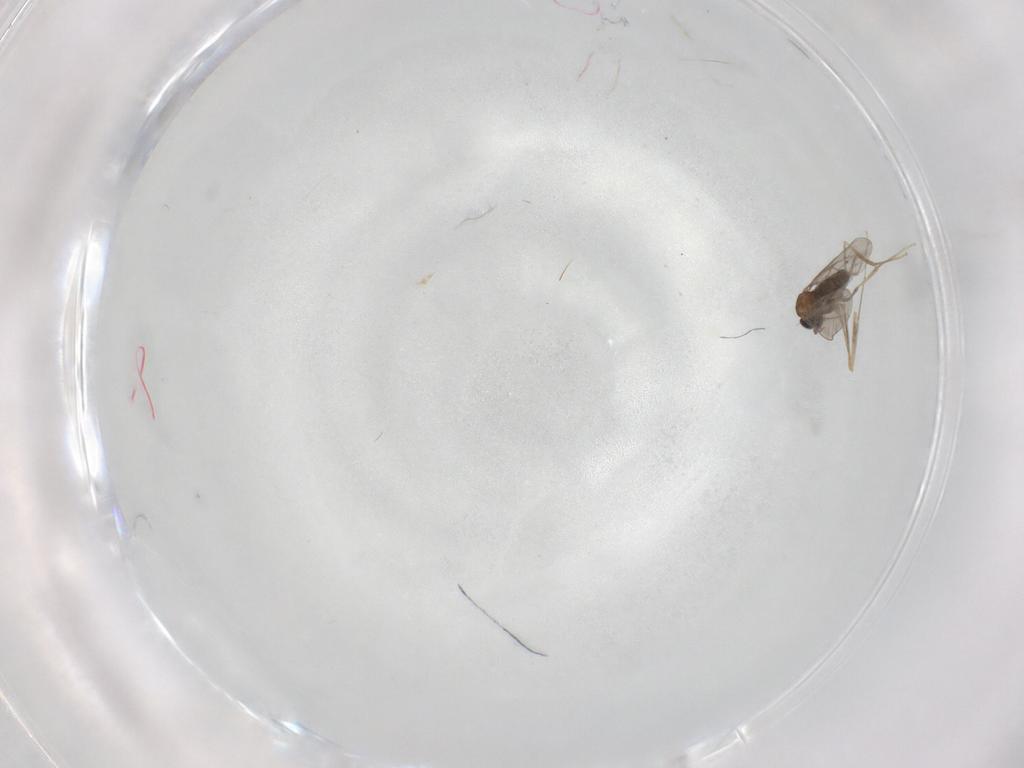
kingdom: Animalia
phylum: Arthropoda
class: Insecta
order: Diptera
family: Cecidomyiidae
